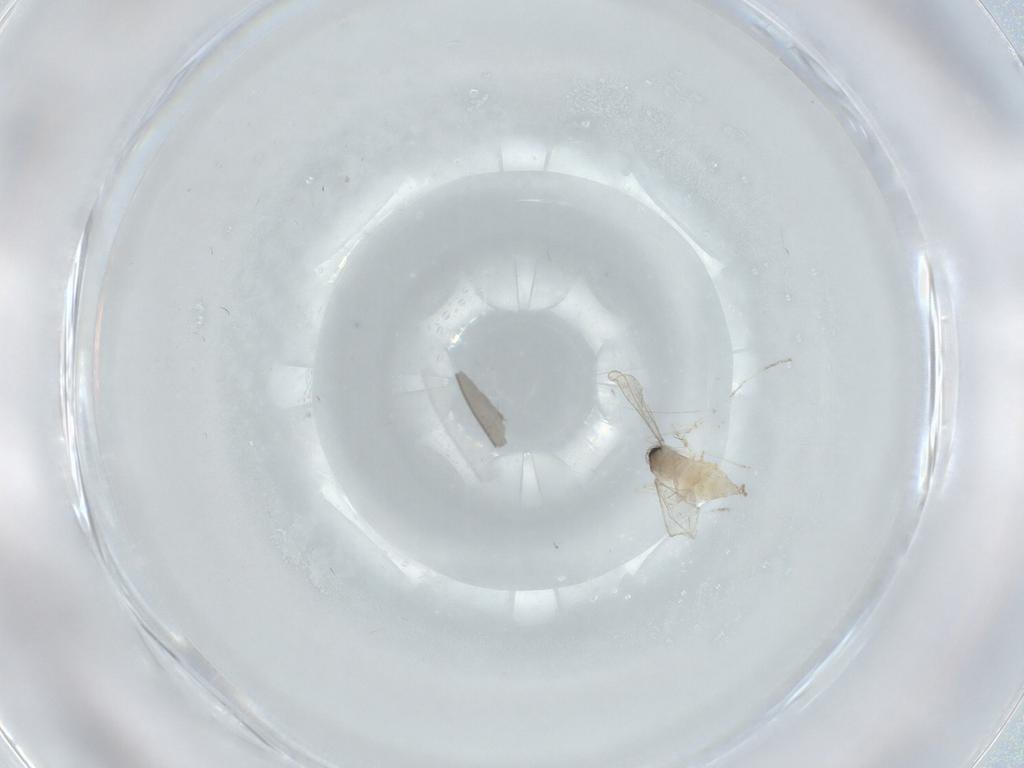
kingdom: Animalia
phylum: Arthropoda
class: Insecta
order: Diptera
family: Cecidomyiidae
